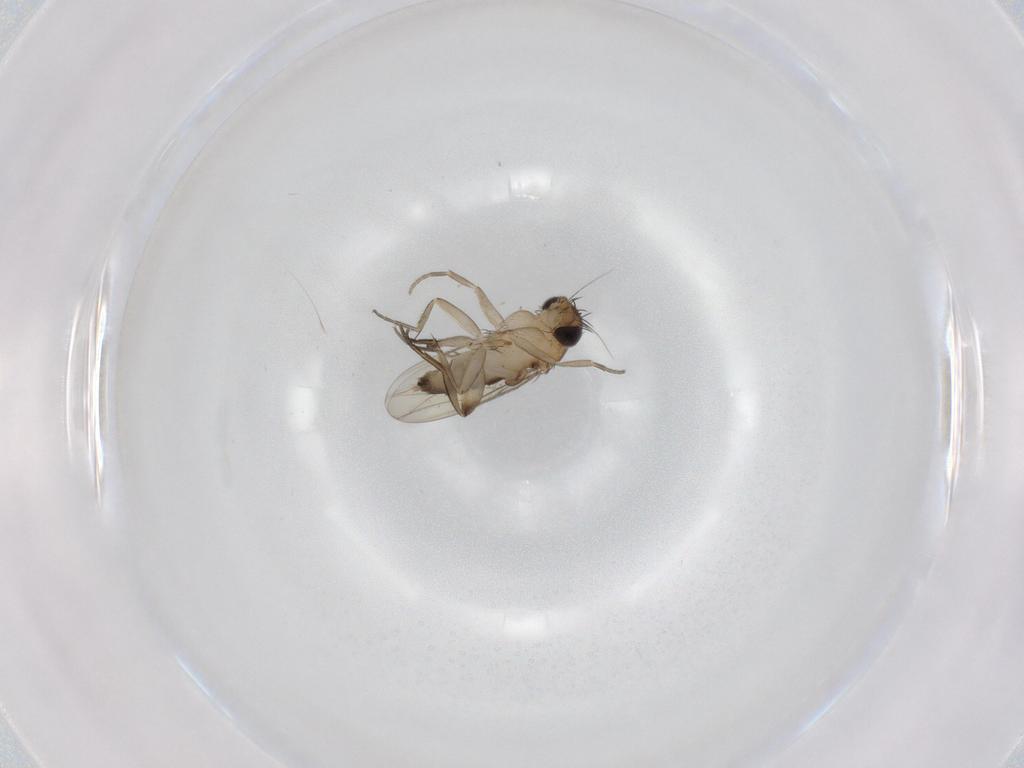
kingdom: Animalia
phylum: Arthropoda
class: Insecta
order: Diptera
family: Phoridae
